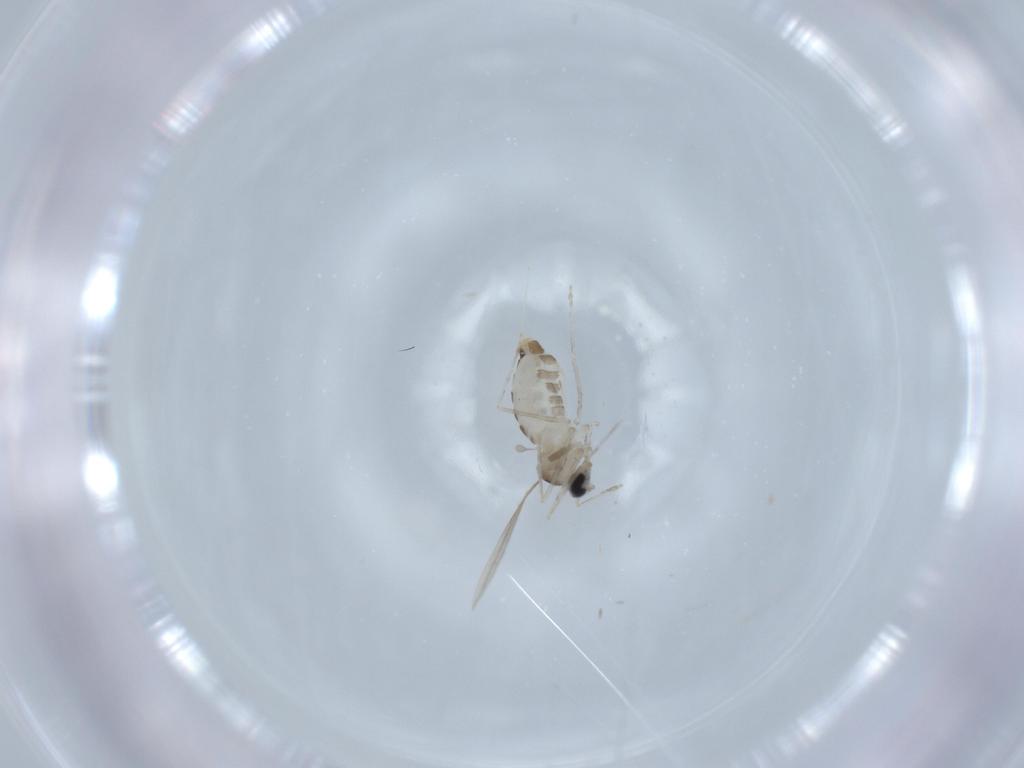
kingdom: Animalia
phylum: Arthropoda
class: Insecta
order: Diptera
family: Cecidomyiidae
